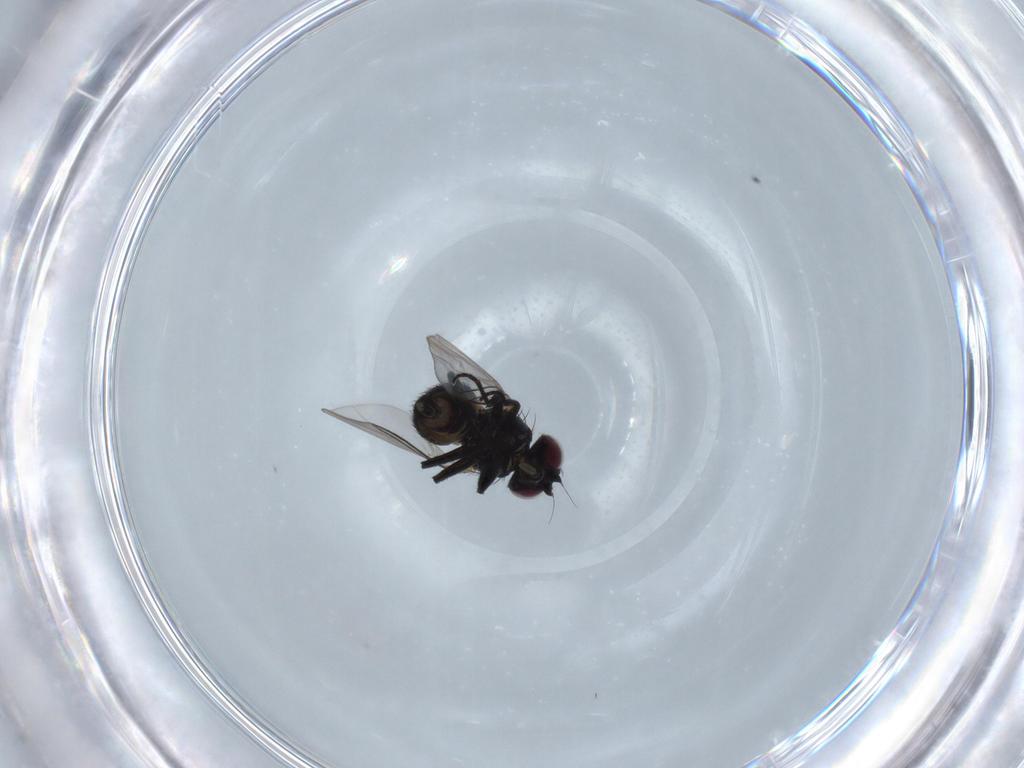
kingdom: Animalia
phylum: Arthropoda
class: Insecta
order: Diptera
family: Agromyzidae
